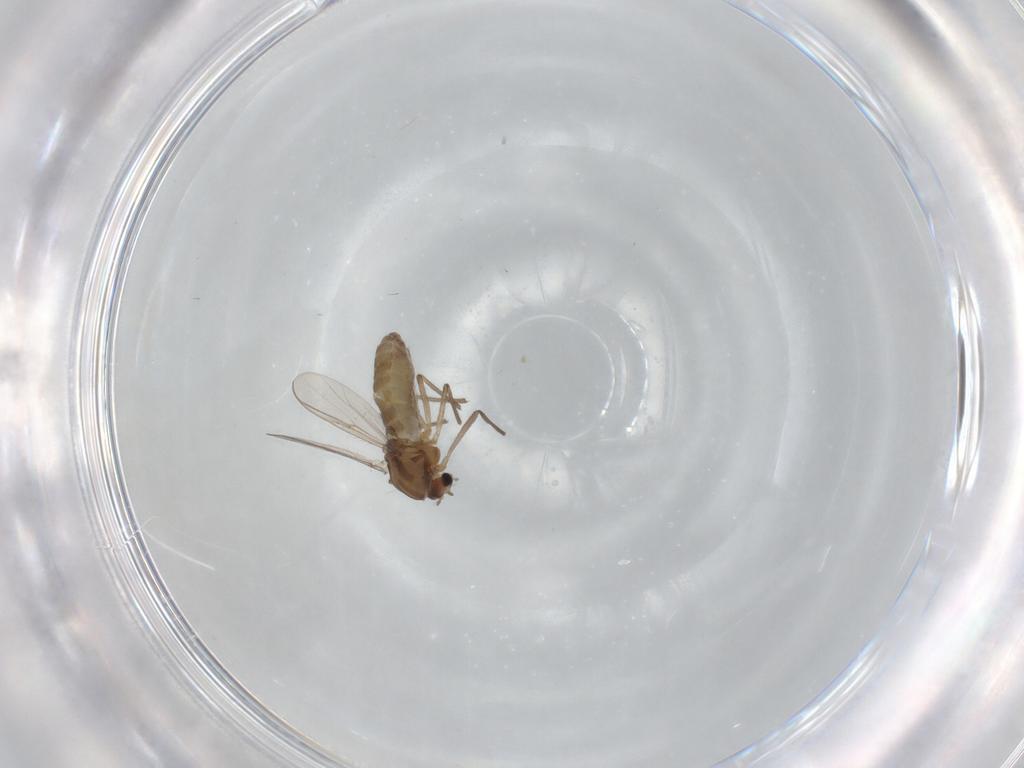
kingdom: Animalia
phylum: Arthropoda
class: Insecta
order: Diptera
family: Chironomidae
